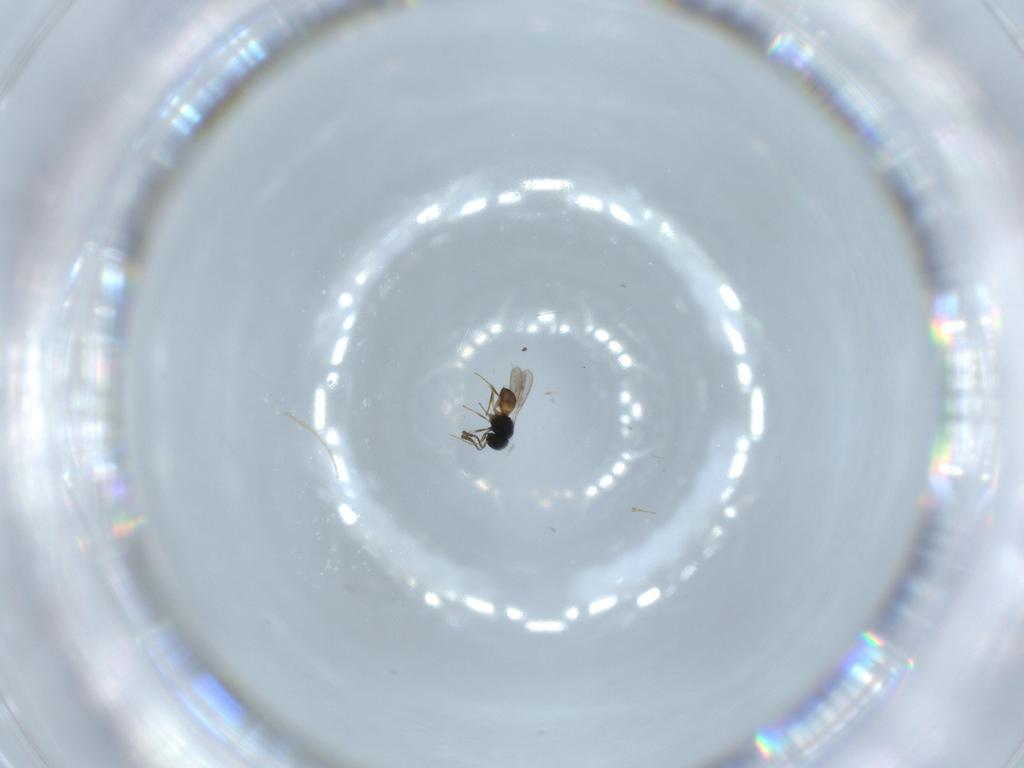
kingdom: Animalia
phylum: Arthropoda
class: Insecta
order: Hymenoptera
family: Scelionidae
